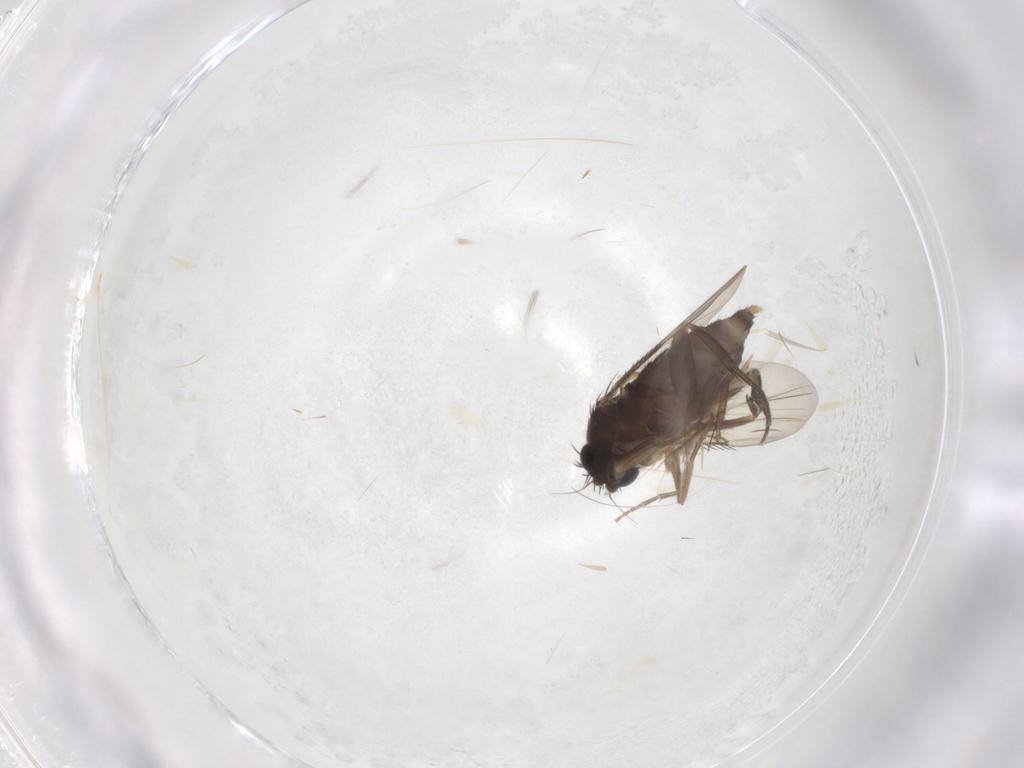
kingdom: Animalia
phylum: Arthropoda
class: Insecta
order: Diptera
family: Phoridae
